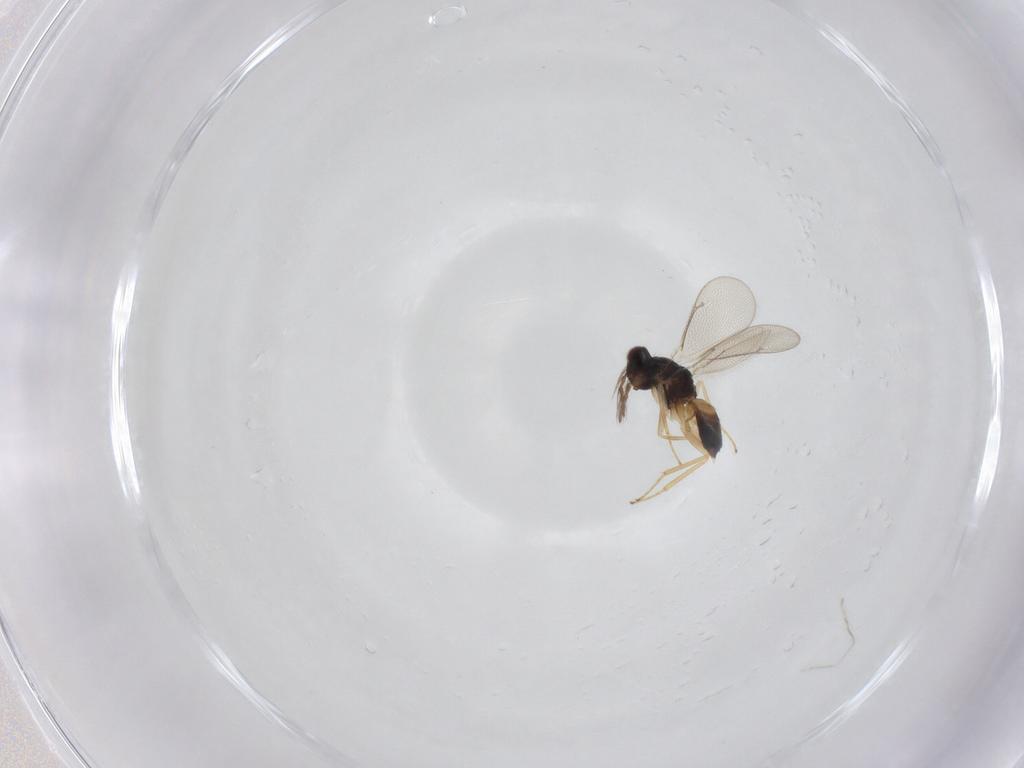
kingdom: Animalia
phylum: Arthropoda
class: Insecta
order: Hymenoptera
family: Eulophidae
